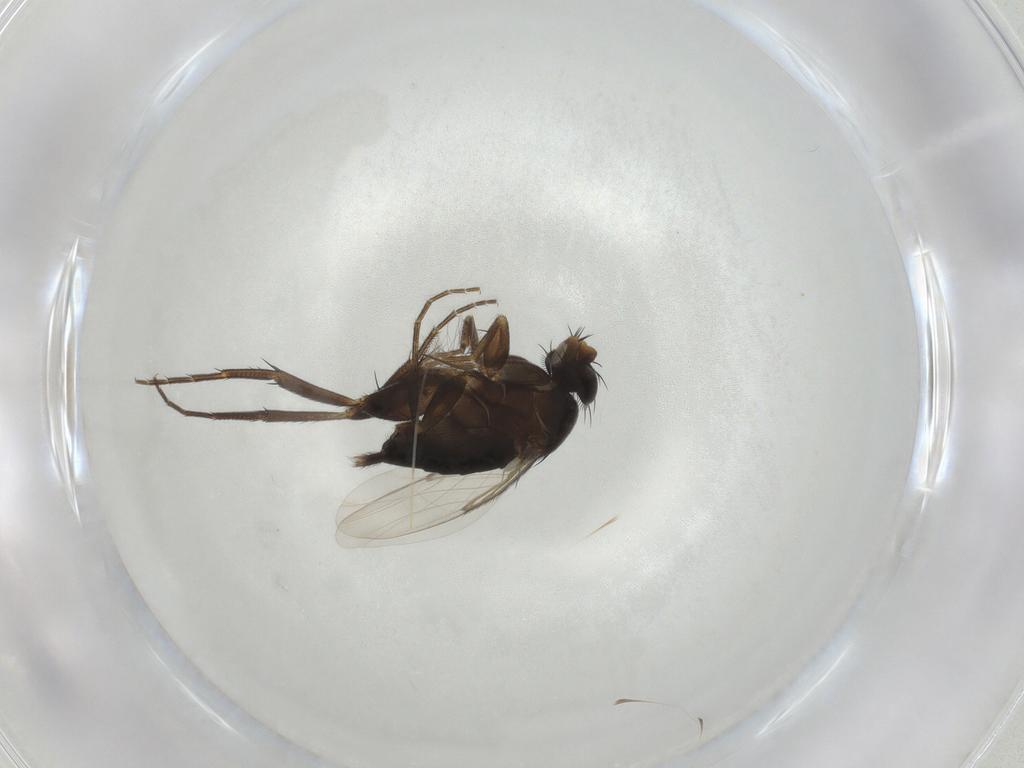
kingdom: Animalia
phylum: Arthropoda
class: Insecta
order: Diptera
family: Phoridae
